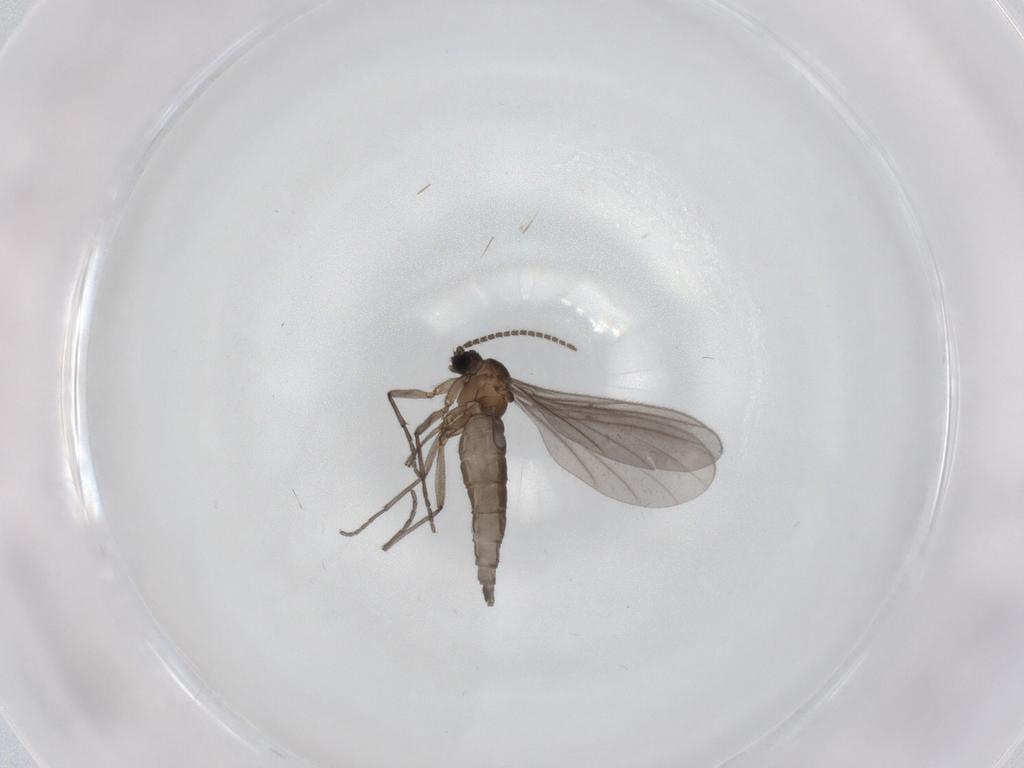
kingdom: Animalia
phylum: Arthropoda
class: Insecta
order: Diptera
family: Sciaridae
